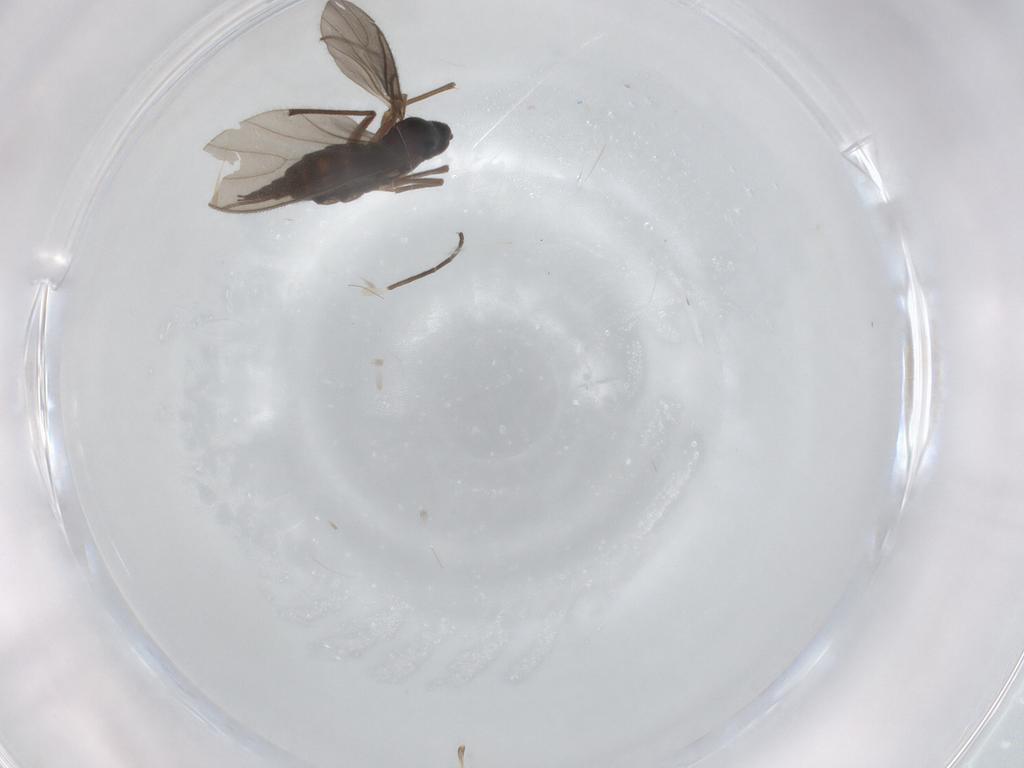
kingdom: Animalia
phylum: Arthropoda
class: Insecta
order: Diptera
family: Sciaridae
